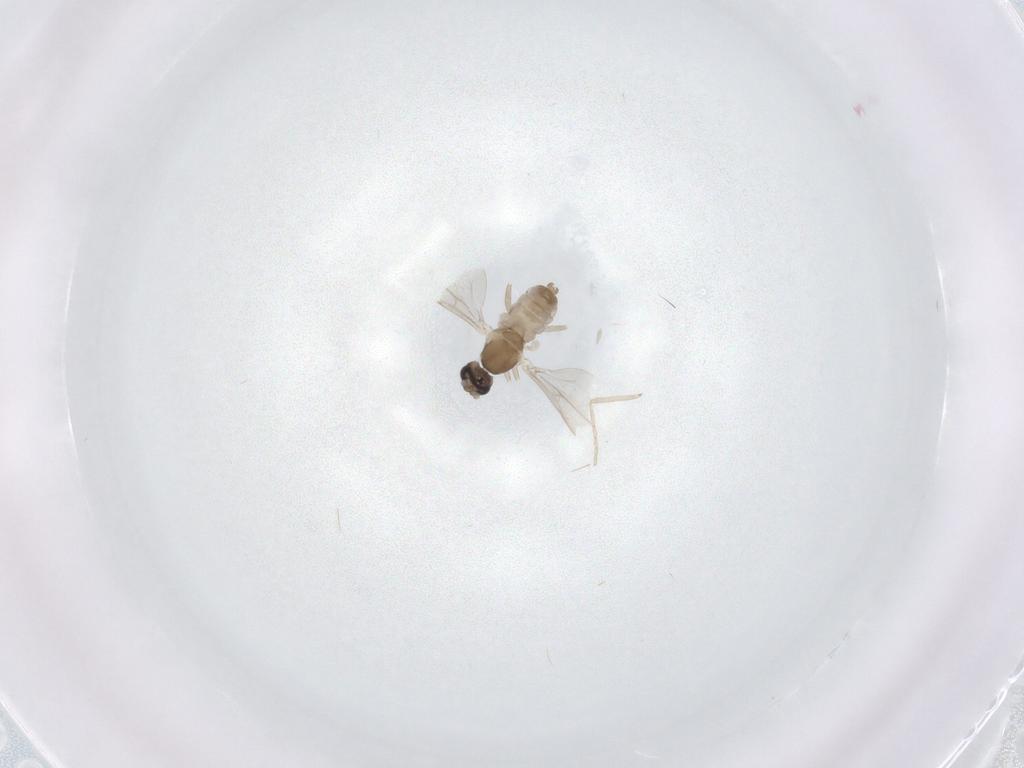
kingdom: Animalia
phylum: Arthropoda
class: Insecta
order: Diptera
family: Cecidomyiidae
